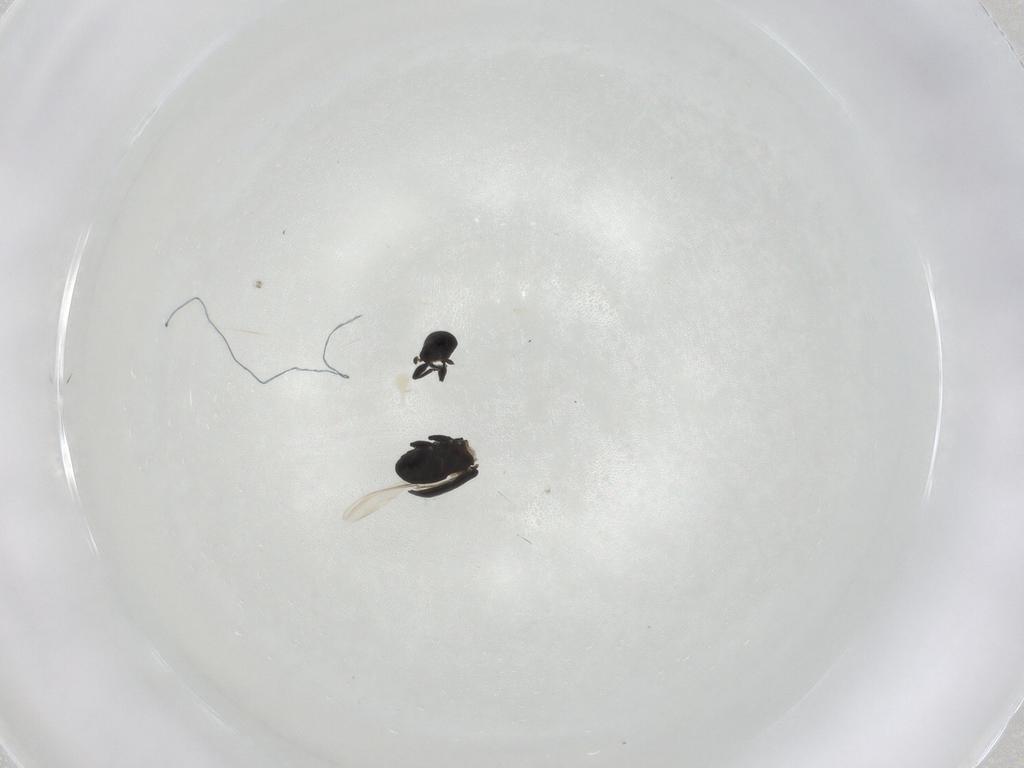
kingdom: Animalia
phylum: Arthropoda
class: Insecta
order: Coleoptera
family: Curculionidae
